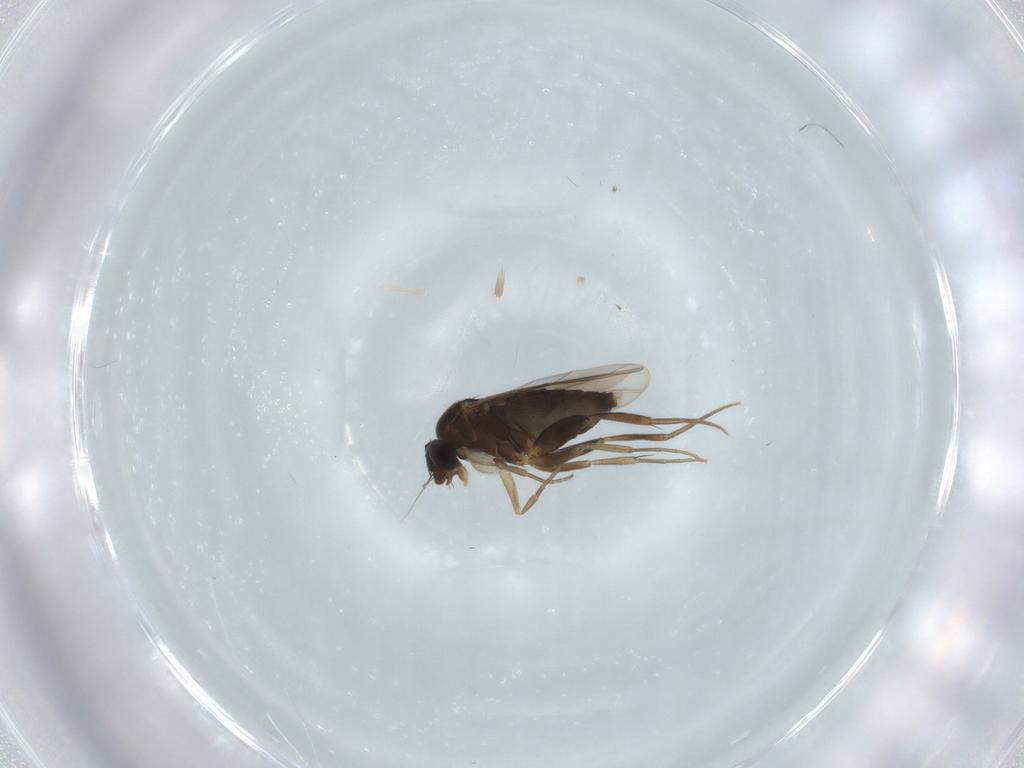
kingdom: Animalia
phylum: Arthropoda
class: Insecta
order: Diptera
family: Phoridae
